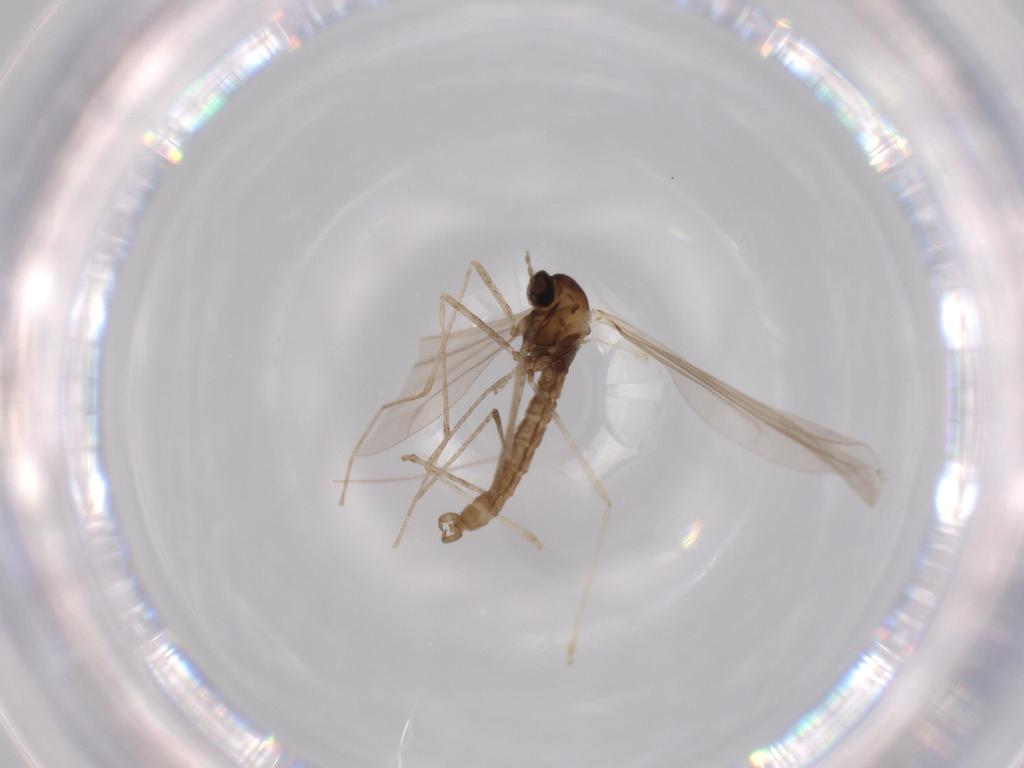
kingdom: Animalia
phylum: Arthropoda
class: Insecta
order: Diptera
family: Cecidomyiidae
